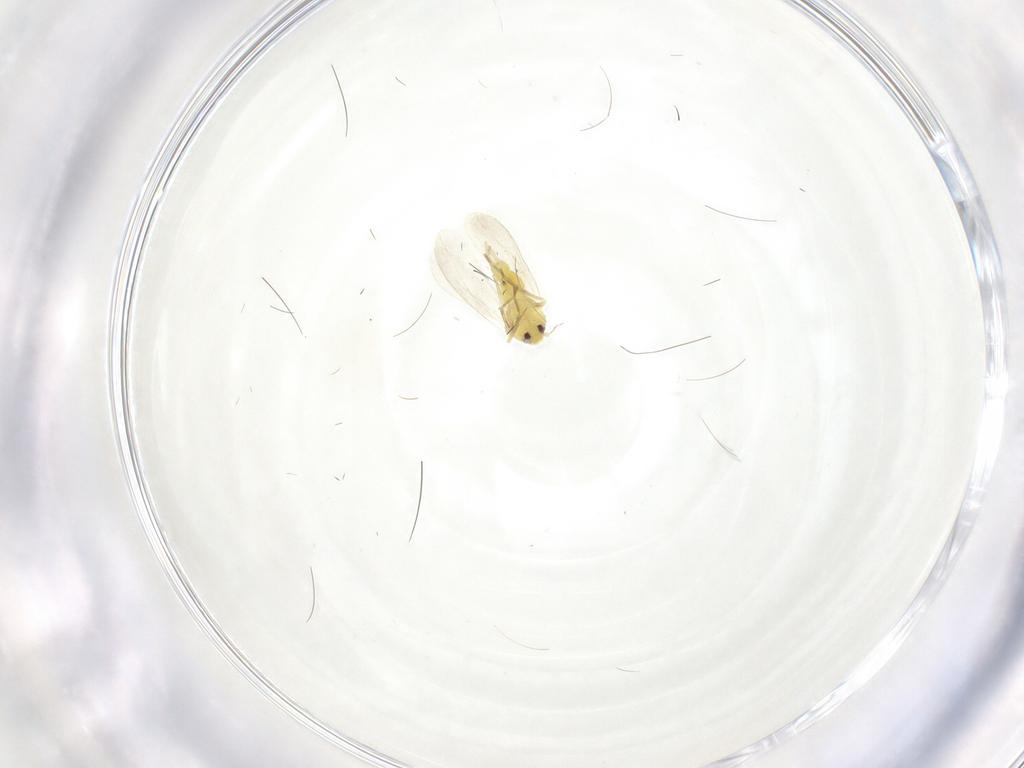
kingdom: Animalia
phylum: Arthropoda
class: Insecta
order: Hemiptera
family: Aleyrodidae
